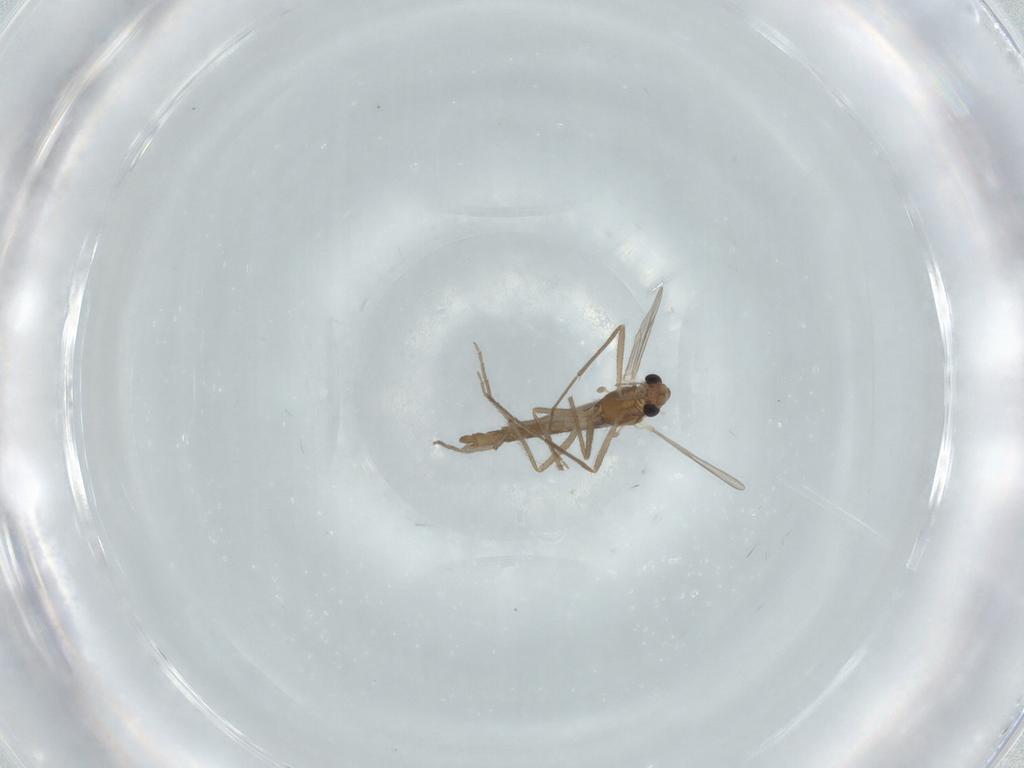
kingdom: Animalia
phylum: Arthropoda
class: Insecta
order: Diptera
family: Chironomidae
